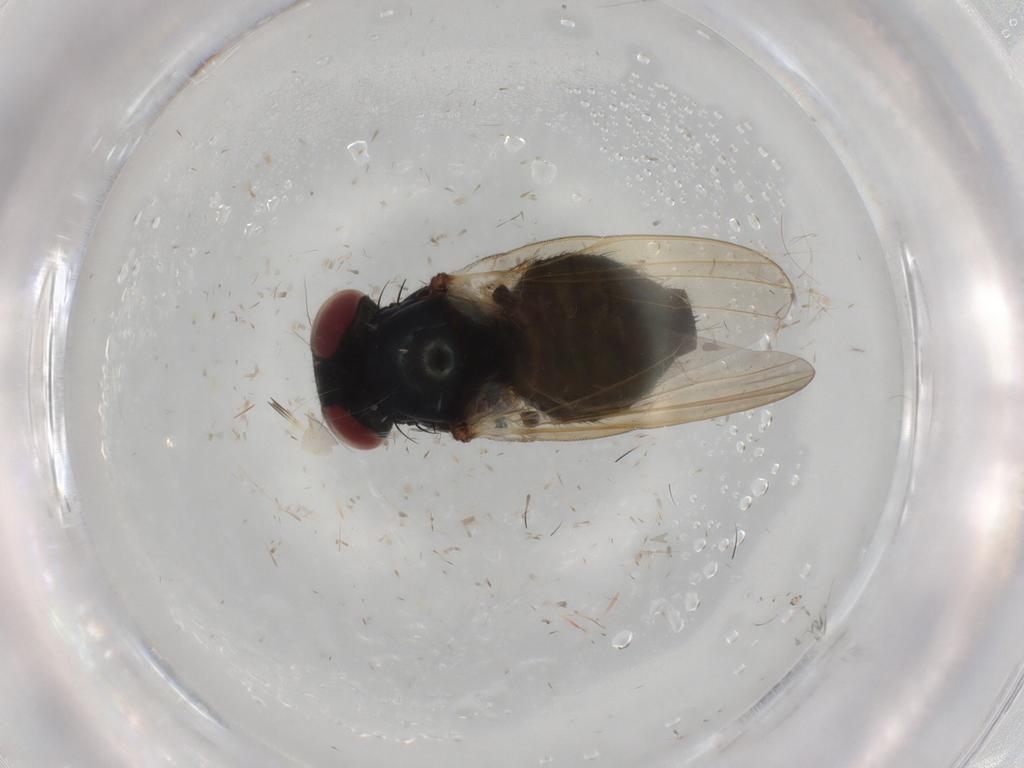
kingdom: Animalia
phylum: Arthropoda
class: Insecta
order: Diptera
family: Lonchaeidae
